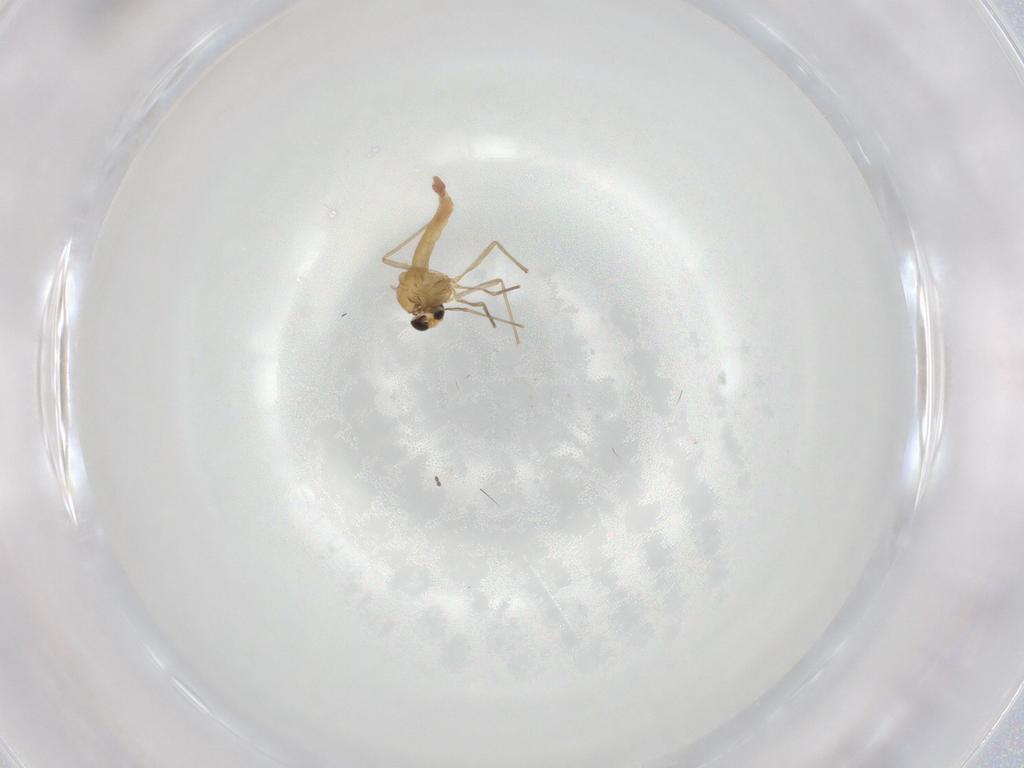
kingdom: Animalia
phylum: Arthropoda
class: Insecta
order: Diptera
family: Chironomidae
